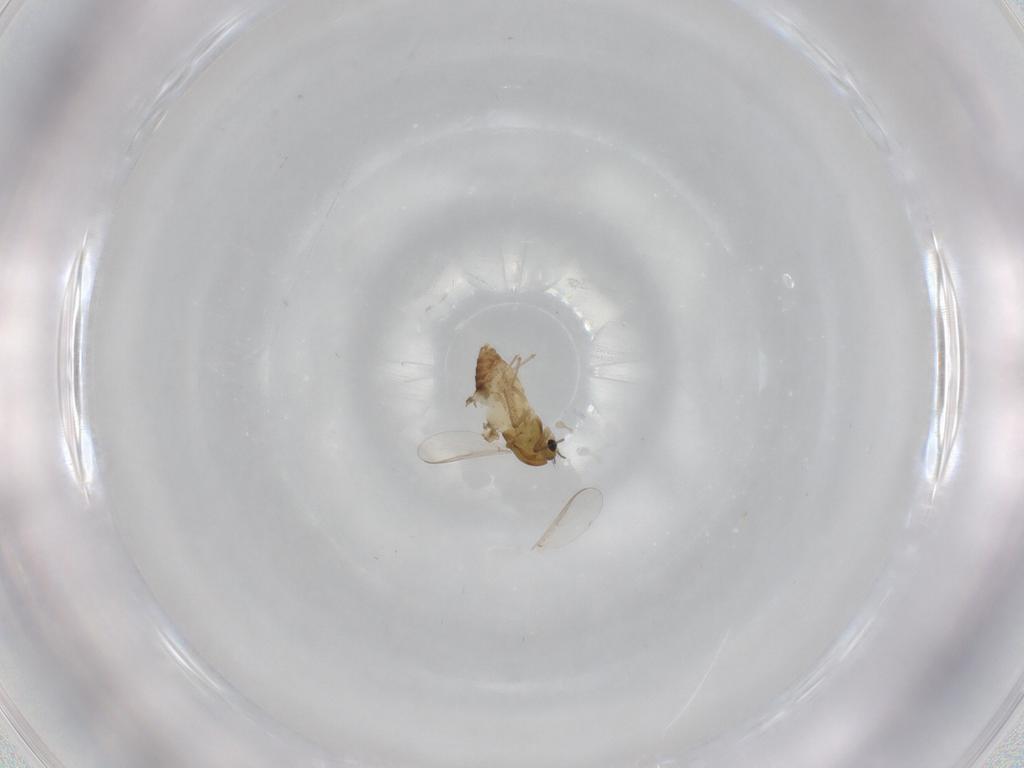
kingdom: Animalia
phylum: Arthropoda
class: Insecta
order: Diptera
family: Chironomidae
